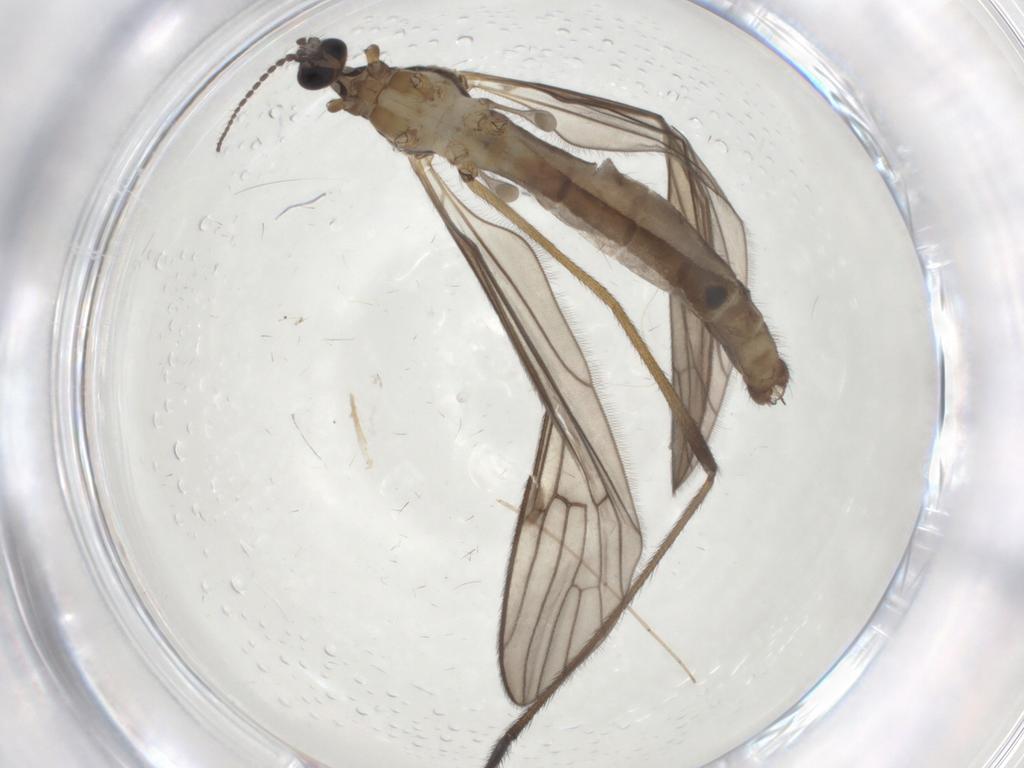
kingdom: Animalia
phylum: Arthropoda
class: Insecta
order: Diptera
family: Limoniidae
